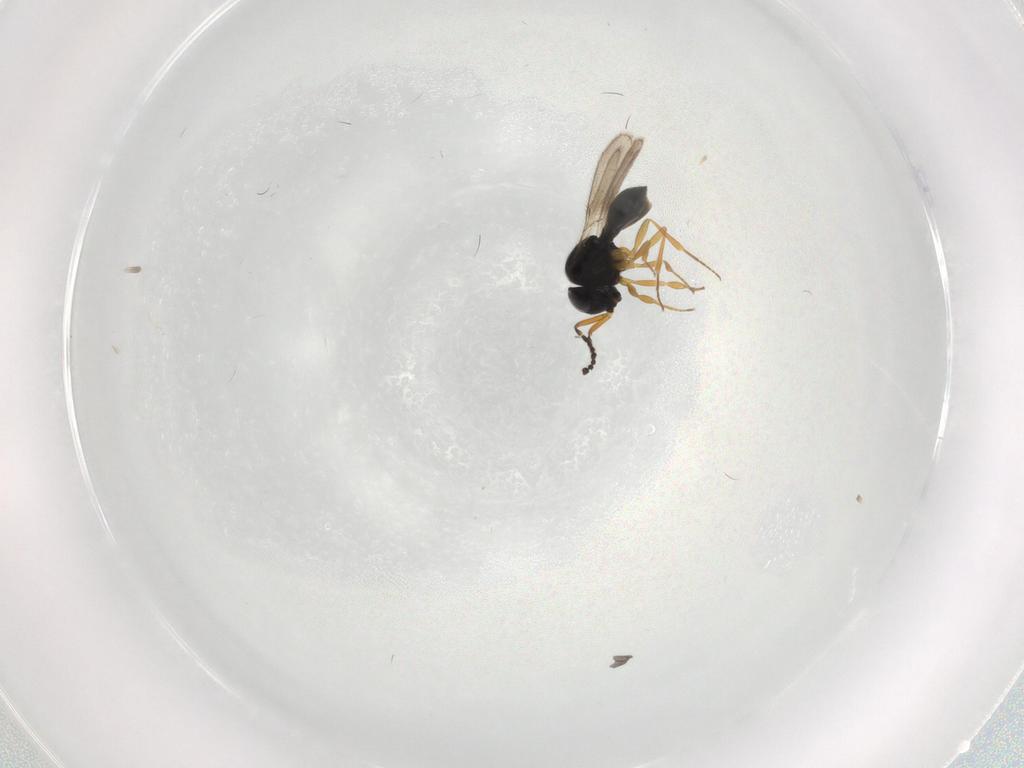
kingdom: Animalia
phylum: Arthropoda
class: Insecta
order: Hymenoptera
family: Scelionidae
